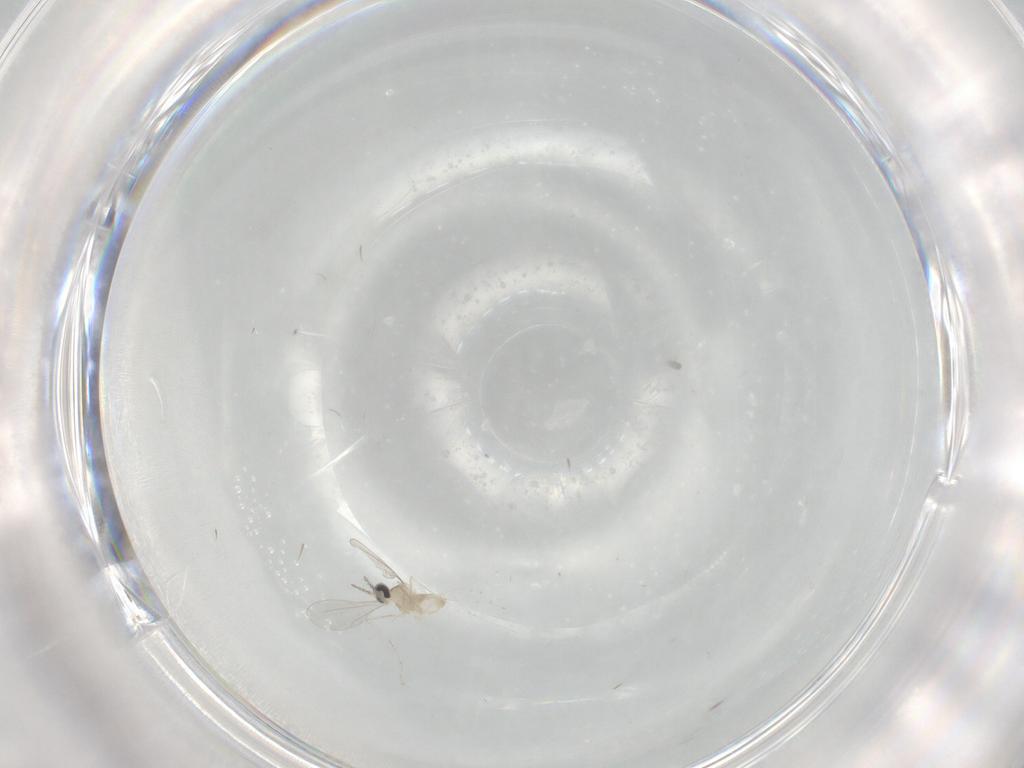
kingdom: Animalia
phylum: Arthropoda
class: Insecta
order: Diptera
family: Cecidomyiidae
